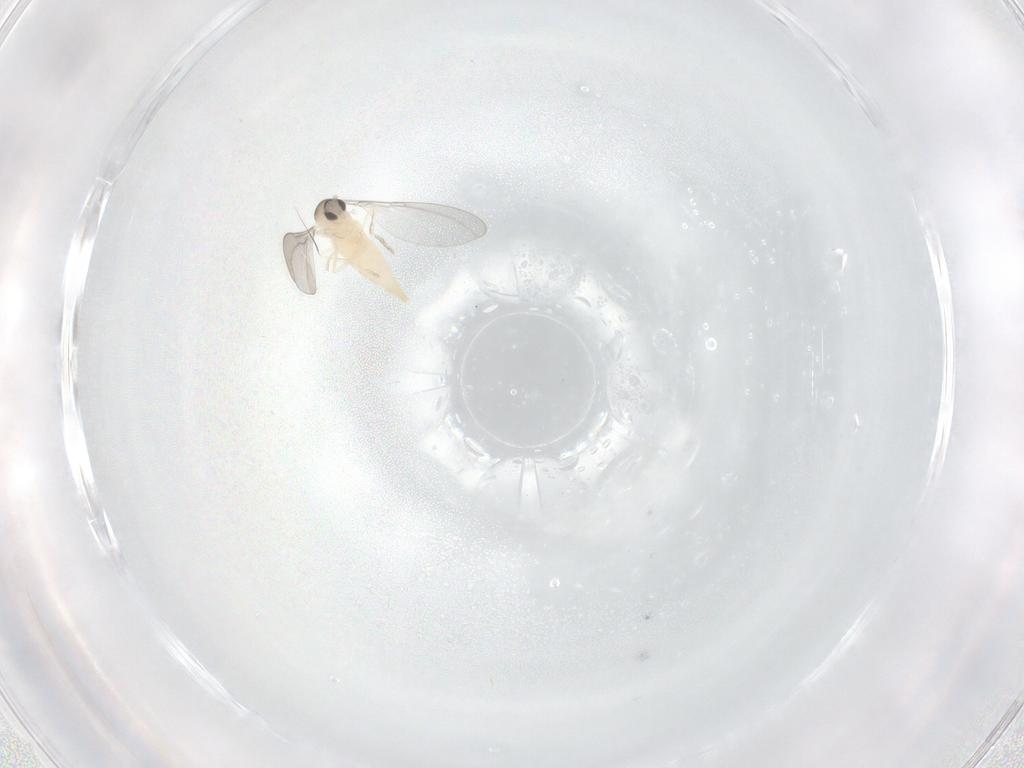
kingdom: Animalia
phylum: Arthropoda
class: Insecta
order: Diptera
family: Cecidomyiidae
